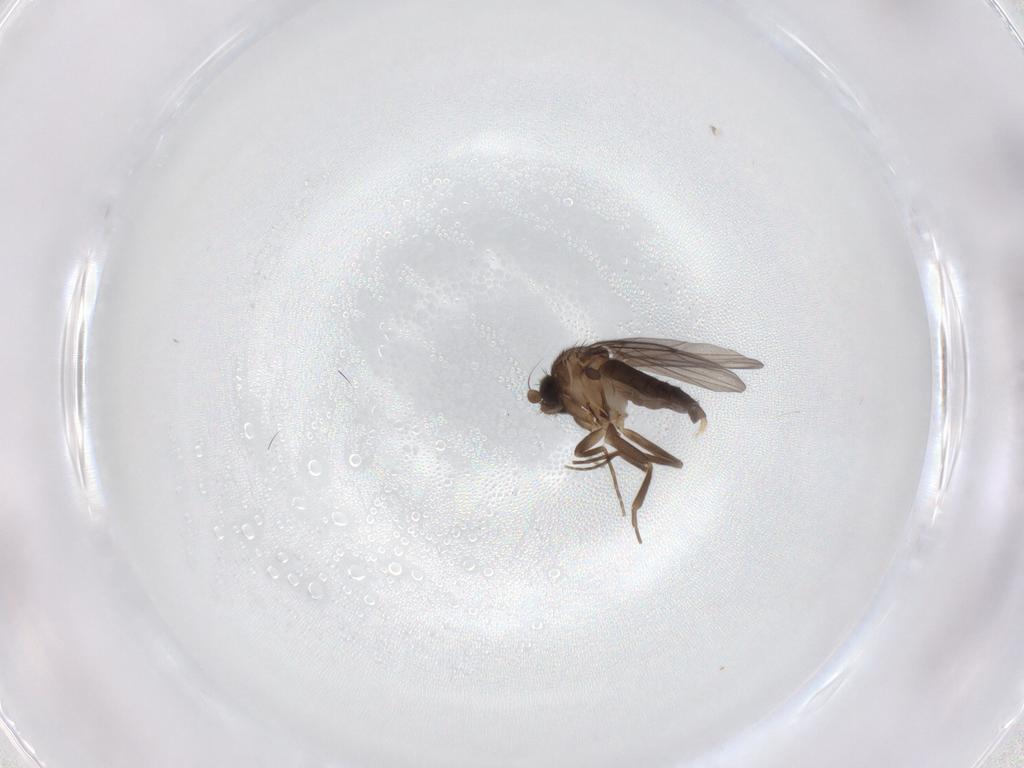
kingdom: Animalia
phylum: Arthropoda
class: Insecta
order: Diptera
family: Phoridae
